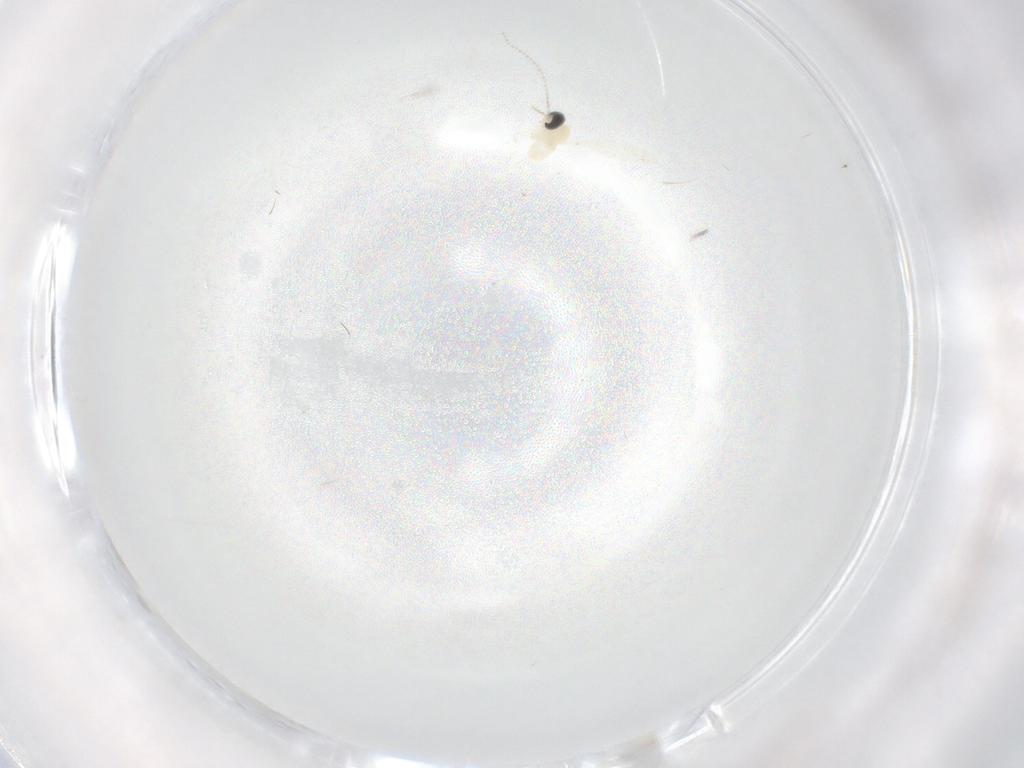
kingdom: Animalia
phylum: Arthropoda
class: Insecta
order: Diptera
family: Cecidomyiidae
